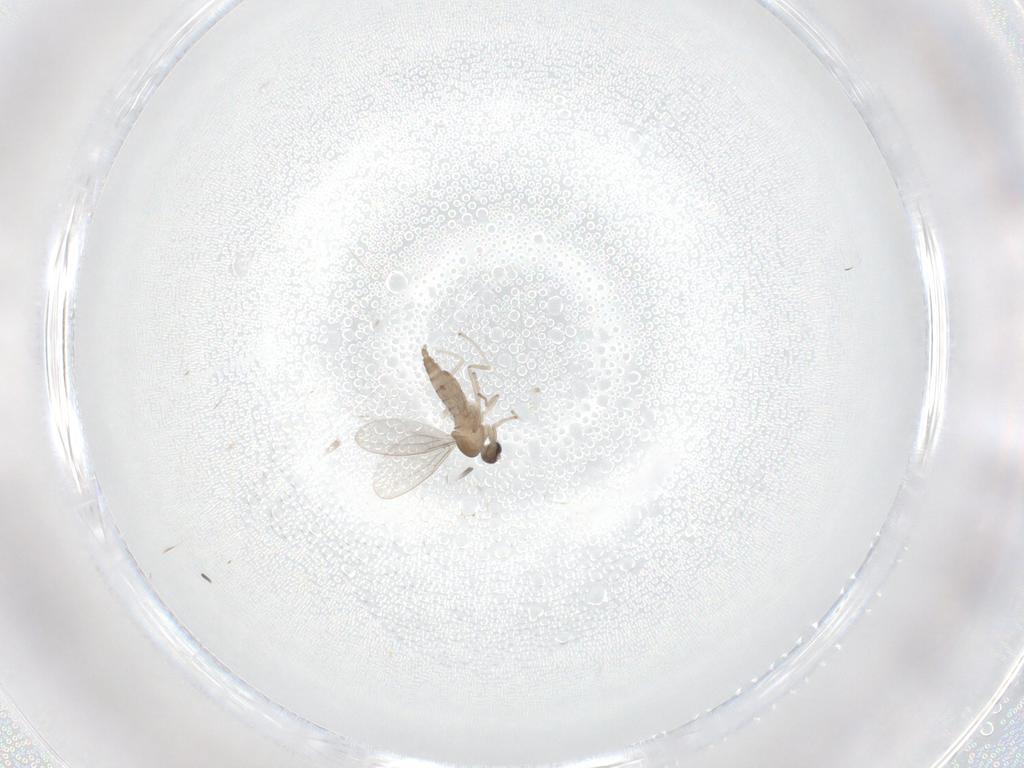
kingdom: Animalia
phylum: Arthropoda
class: Insecta
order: Diptera
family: Cecidomyiidae
